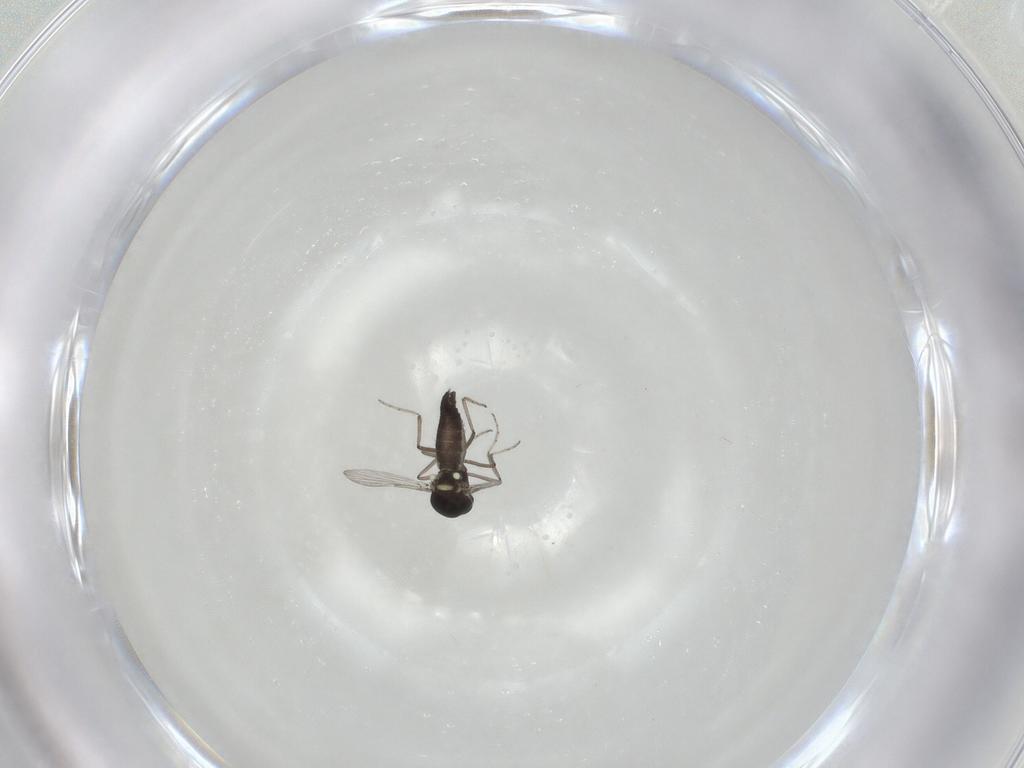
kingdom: Animalia
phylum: Arthropoda
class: Insecta
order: Diptera
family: Ceratopogonidae
